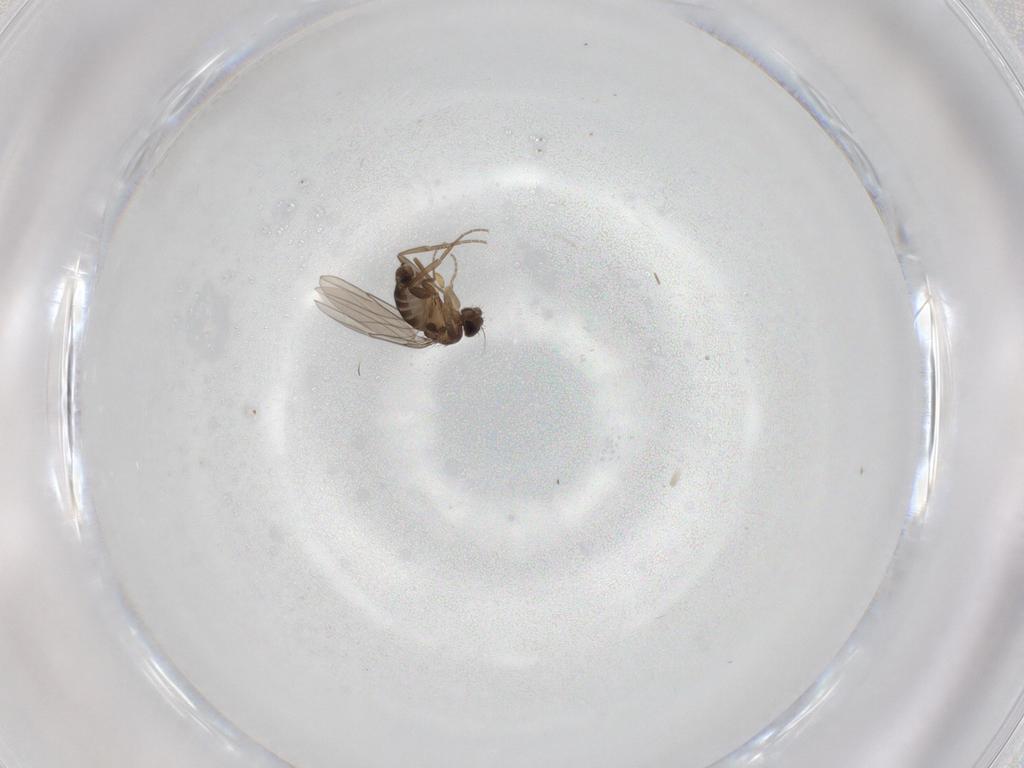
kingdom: Animalia
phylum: Arthropoda
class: Insecta
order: Diptera
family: Phoridae
